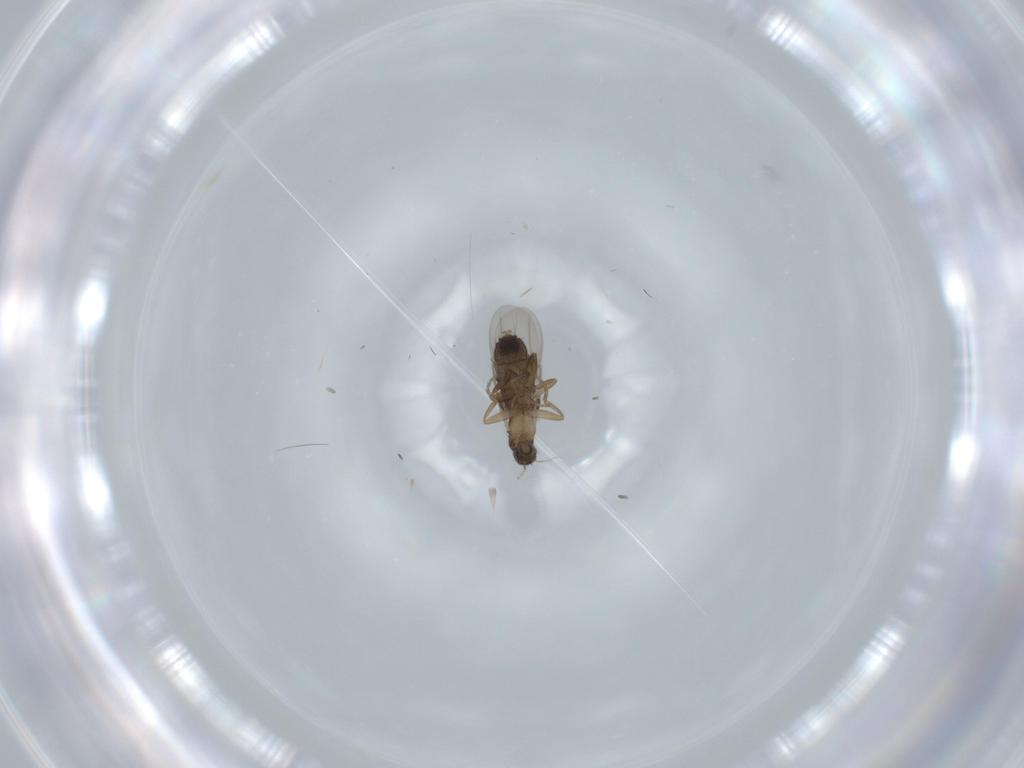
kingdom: Animalia
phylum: Arthropoda
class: Insecta
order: Diptera
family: Phoridae
